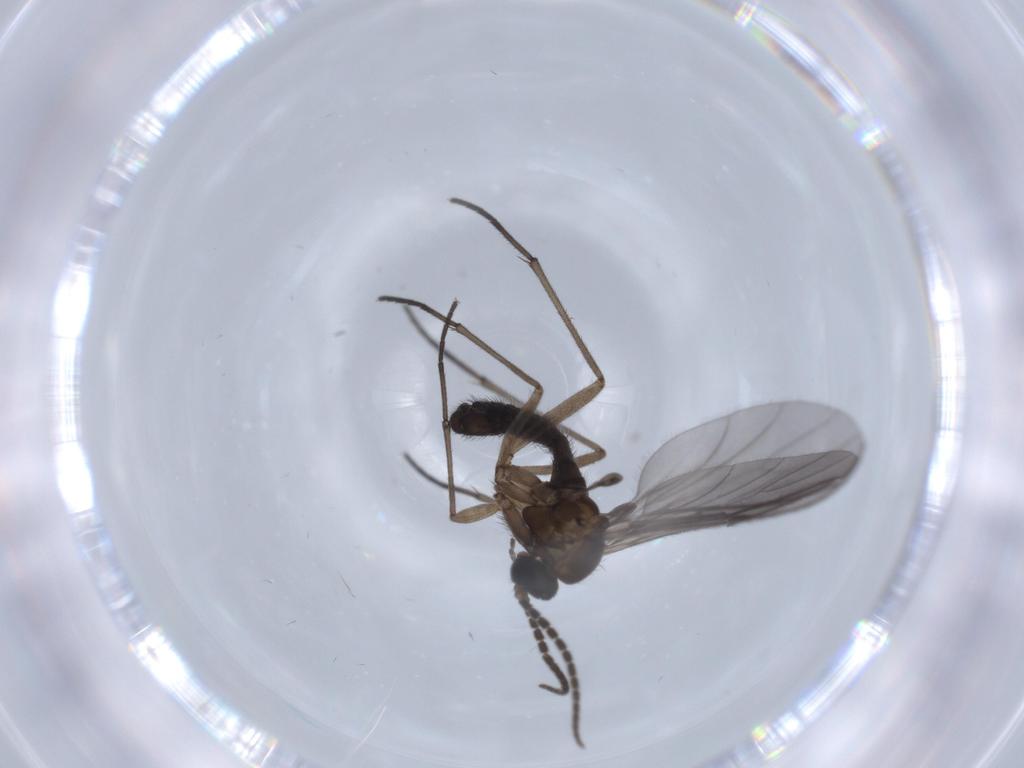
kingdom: Animalia
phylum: Arthropoda
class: Insecta
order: Diptera
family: Sciaridae
